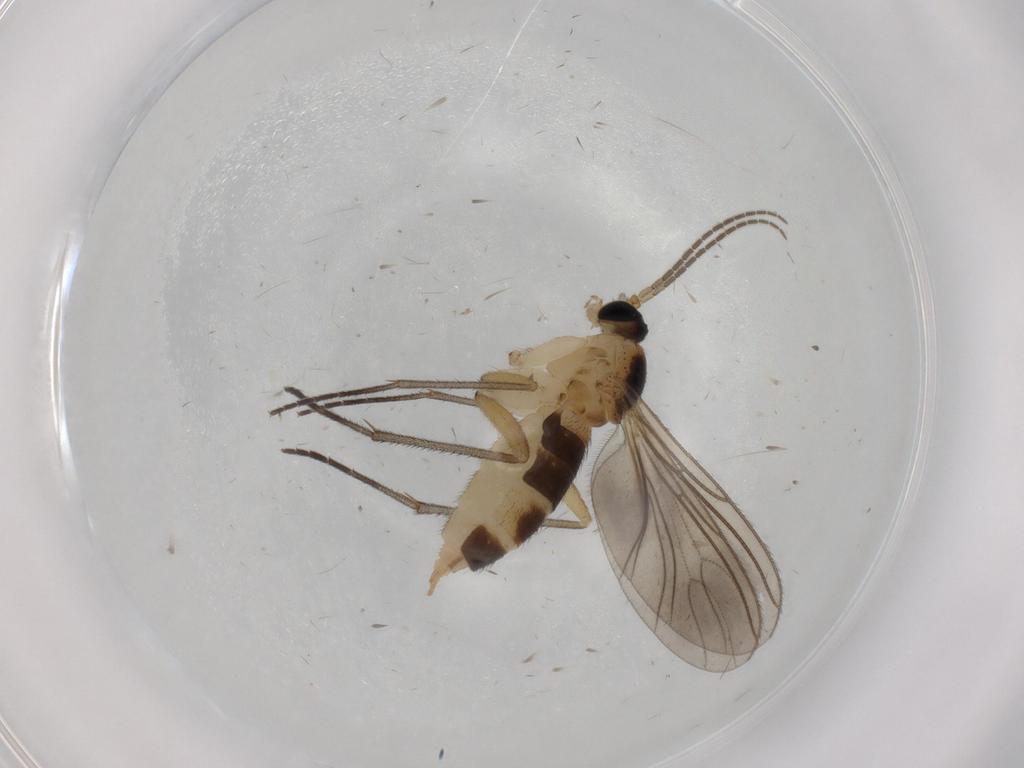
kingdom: Animalia
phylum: Arthropoda
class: Insecta
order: Diptera
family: Sciaridae
